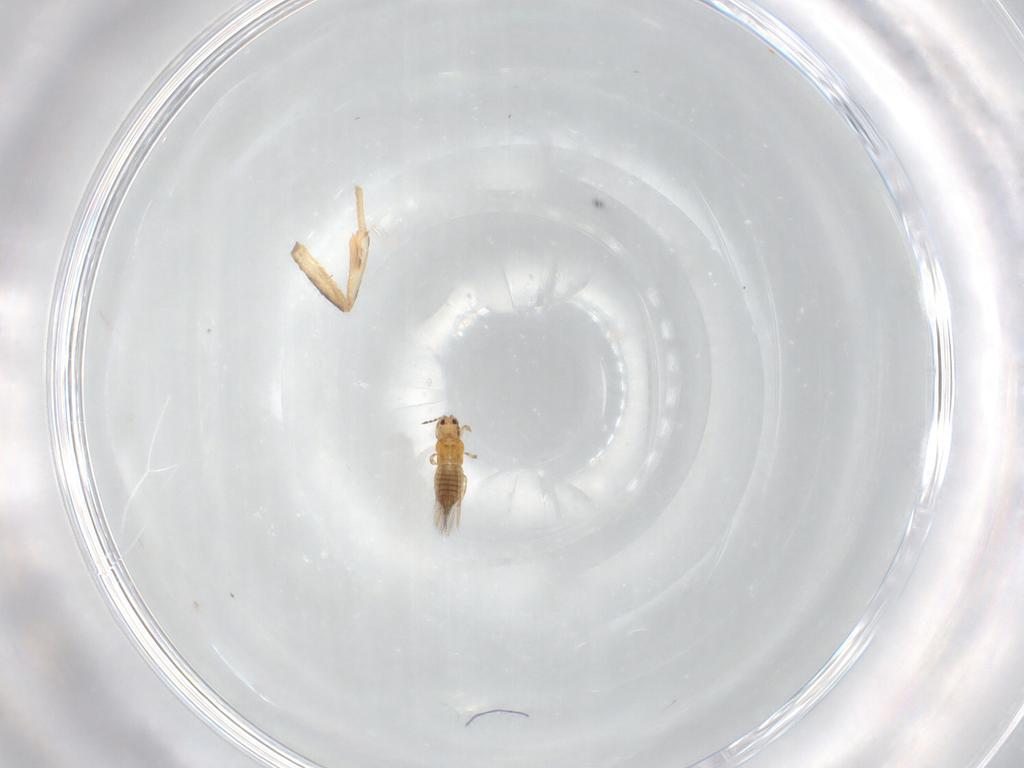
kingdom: Animalia
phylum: Arthropoda
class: Insecta
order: Thysanoptera
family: Thripidae
